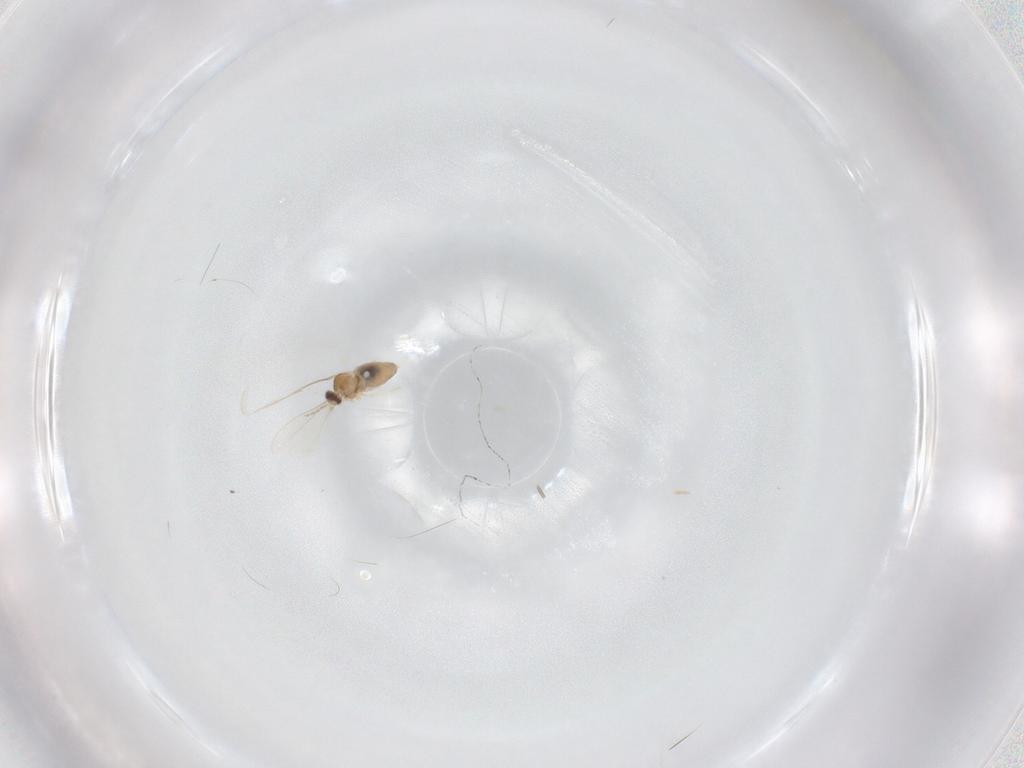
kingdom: Animalia
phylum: Arthropoda
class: Insecta
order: Diptera
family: Cecidomyiidae
